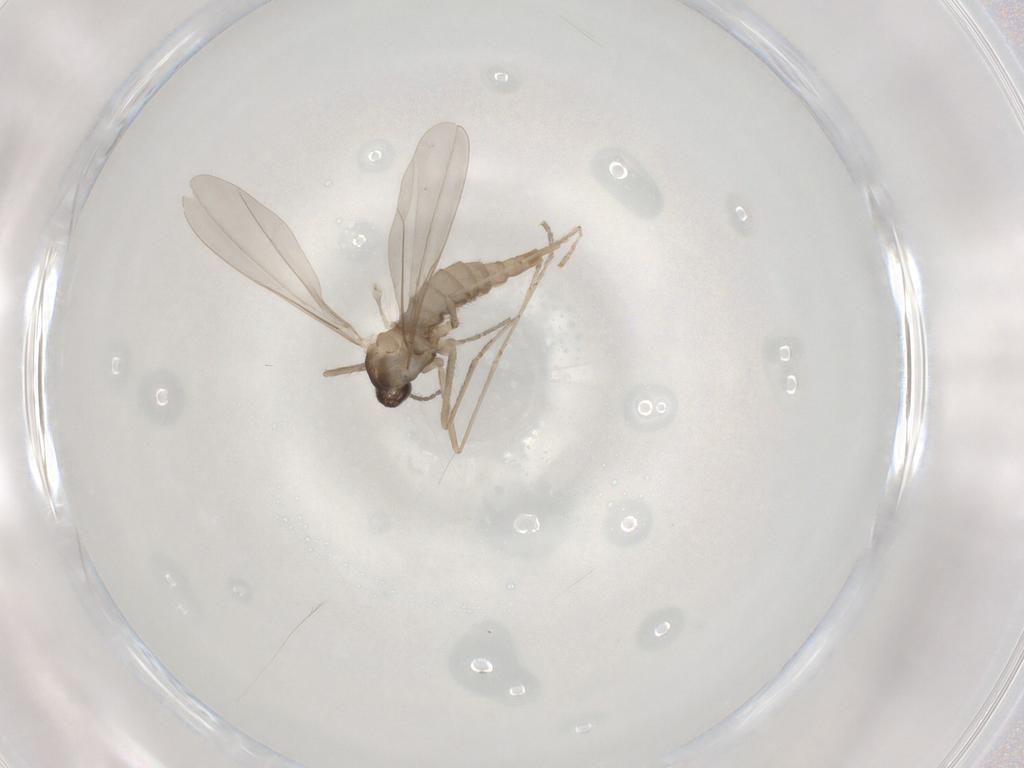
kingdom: Animalia
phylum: Arthropoda
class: Insecta
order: Diptera
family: Cecidomyiidae
